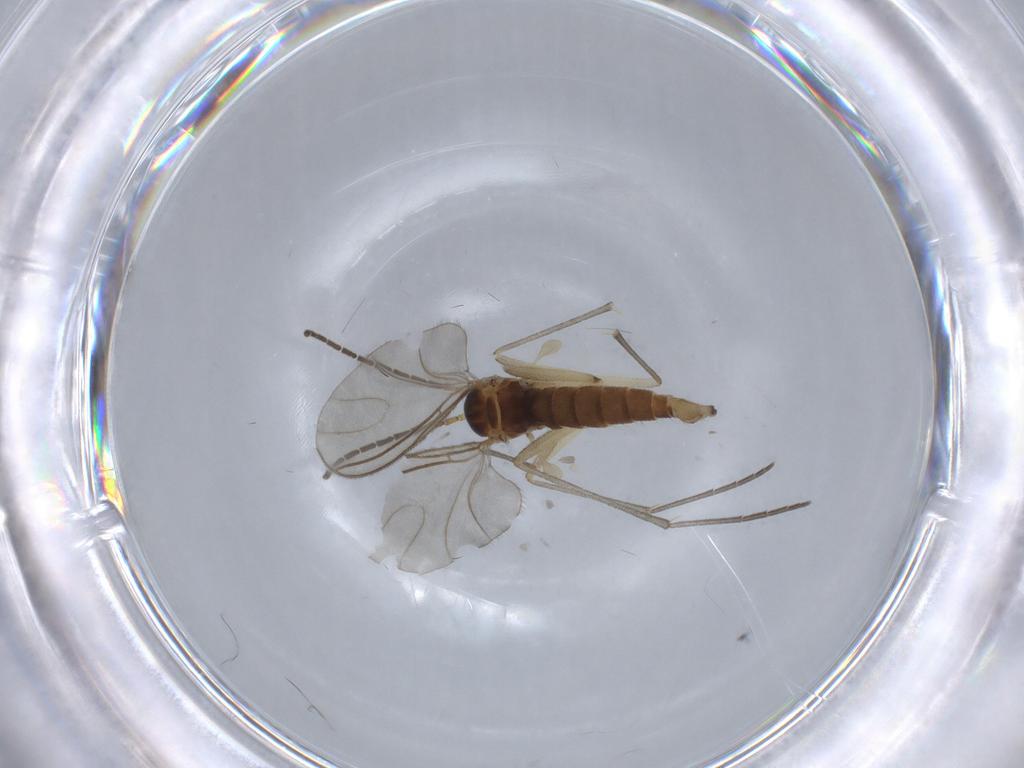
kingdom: Animalia
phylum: Arthropoda
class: Insecta
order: Diptera
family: Sciaridae
